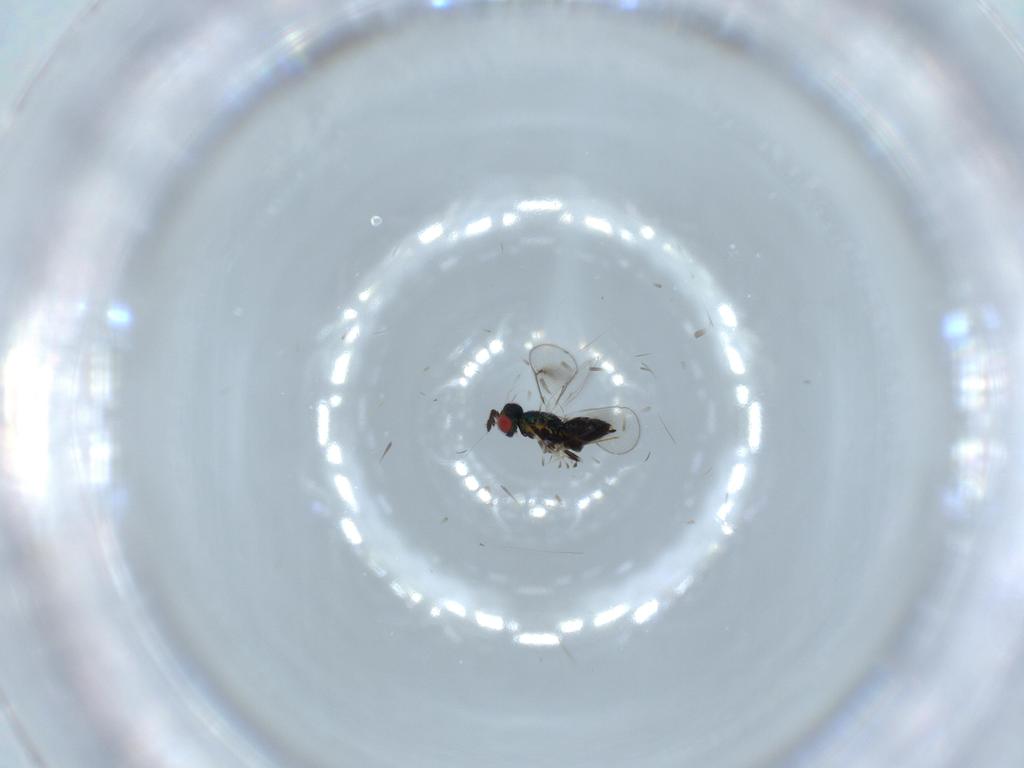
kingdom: Animalia
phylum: Arthropoda
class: Insecta
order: Hymenoptera
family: Eulophidae
